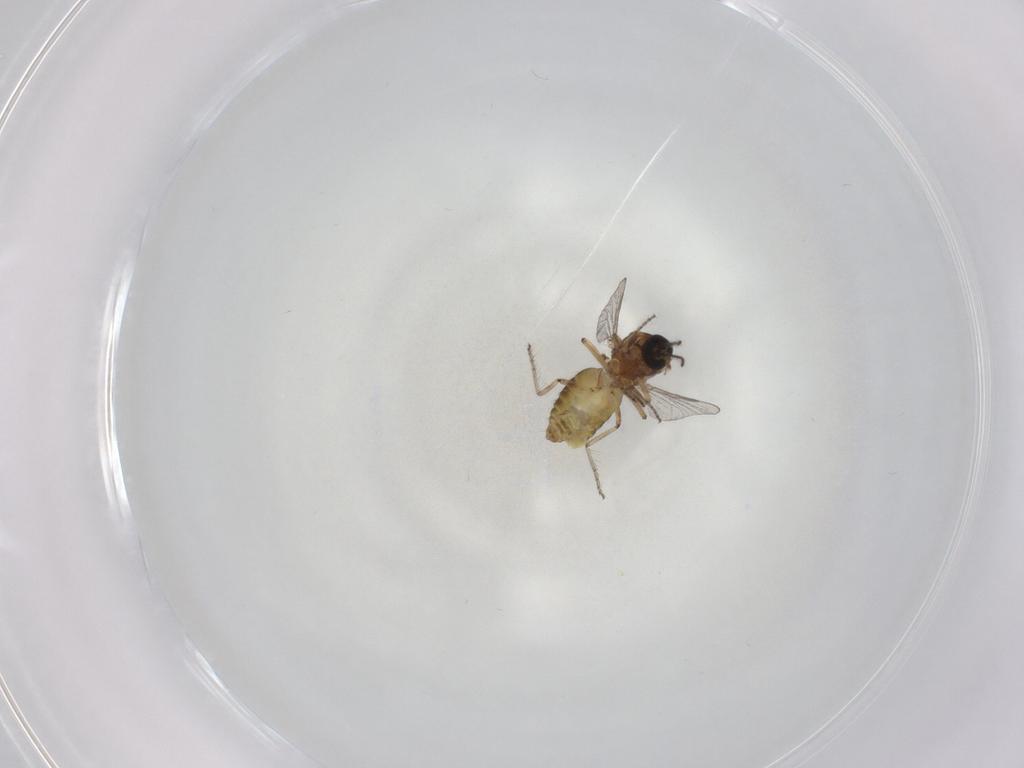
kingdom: Animalia
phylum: Arthropoda
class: Insecta
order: Diptera
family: Ceratopogonidae
